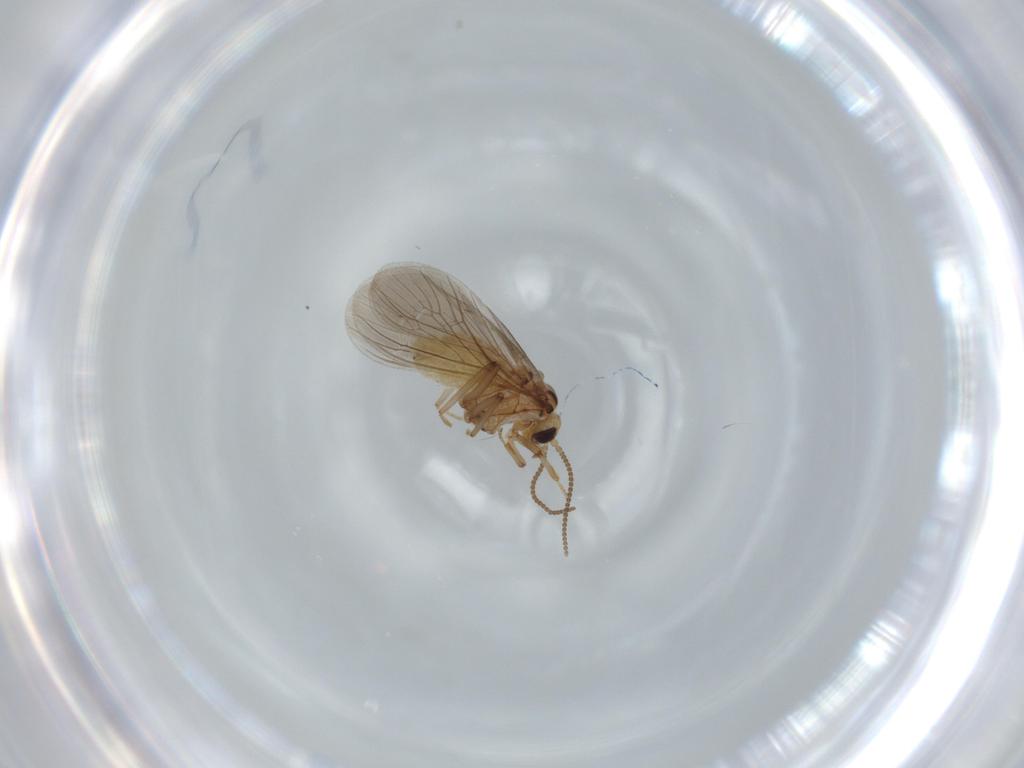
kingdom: Animalia
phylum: Arthropoda
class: Insecta
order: Neuroptera
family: Coniopterygidae
